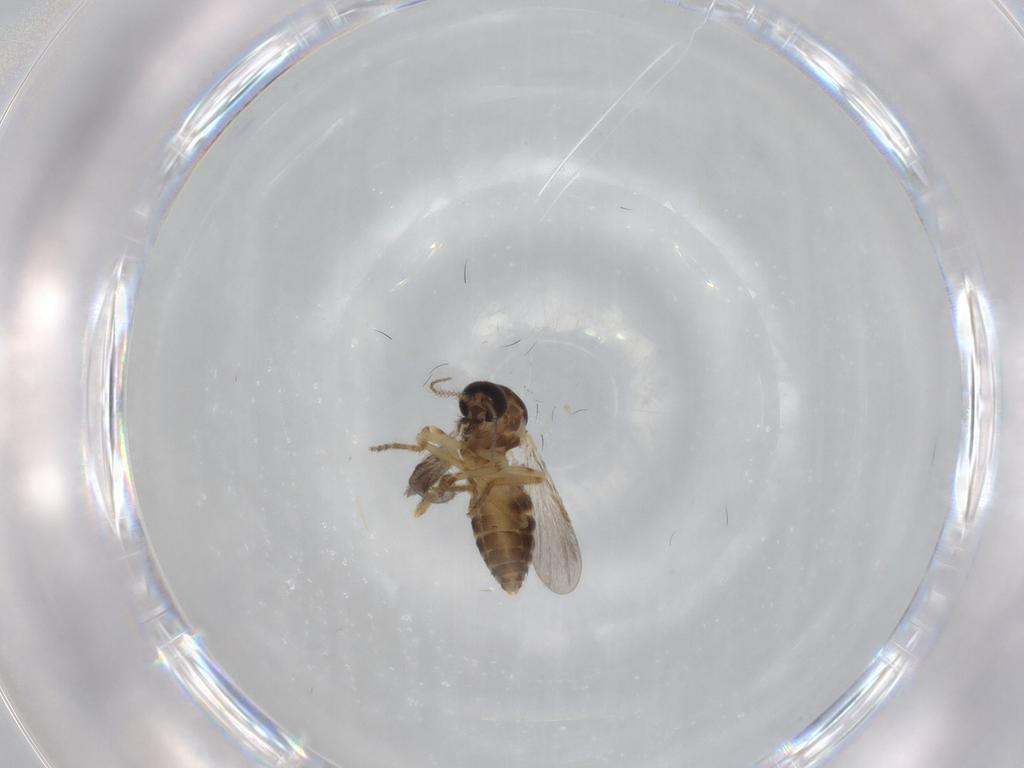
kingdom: Animalia
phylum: Arthropoda
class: Insecta
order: Diptera
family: Ceratopogonidae
